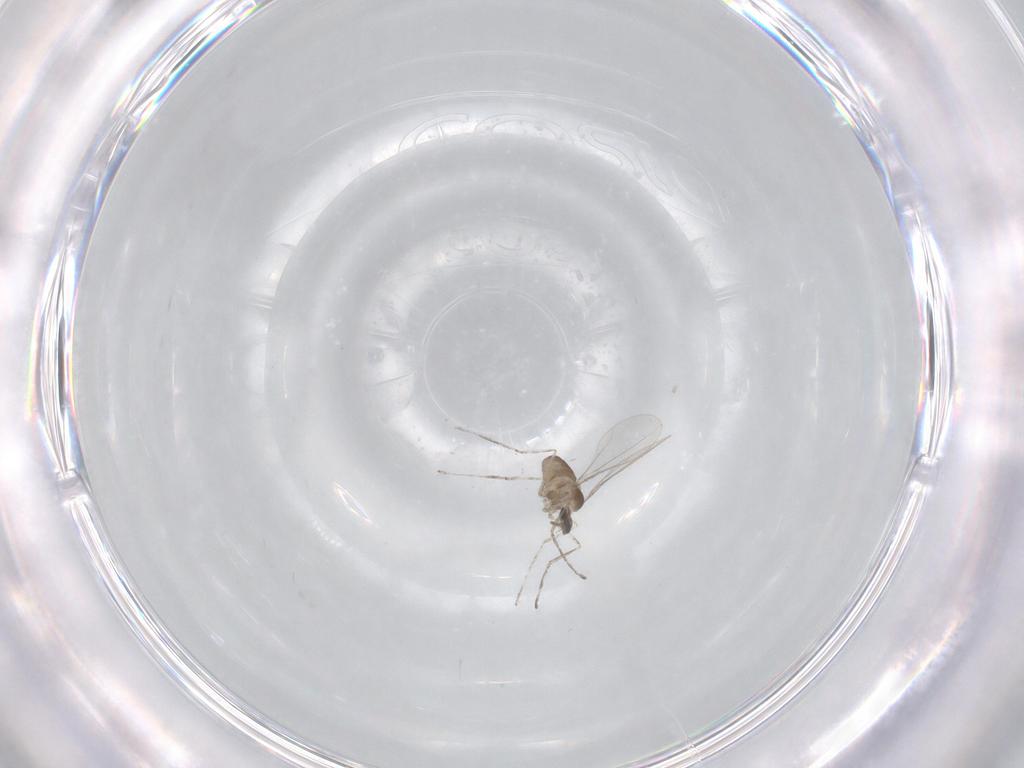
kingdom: Animalia
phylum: Arthropoda
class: Insecta
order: Diptera
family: Cecidomyiidae
